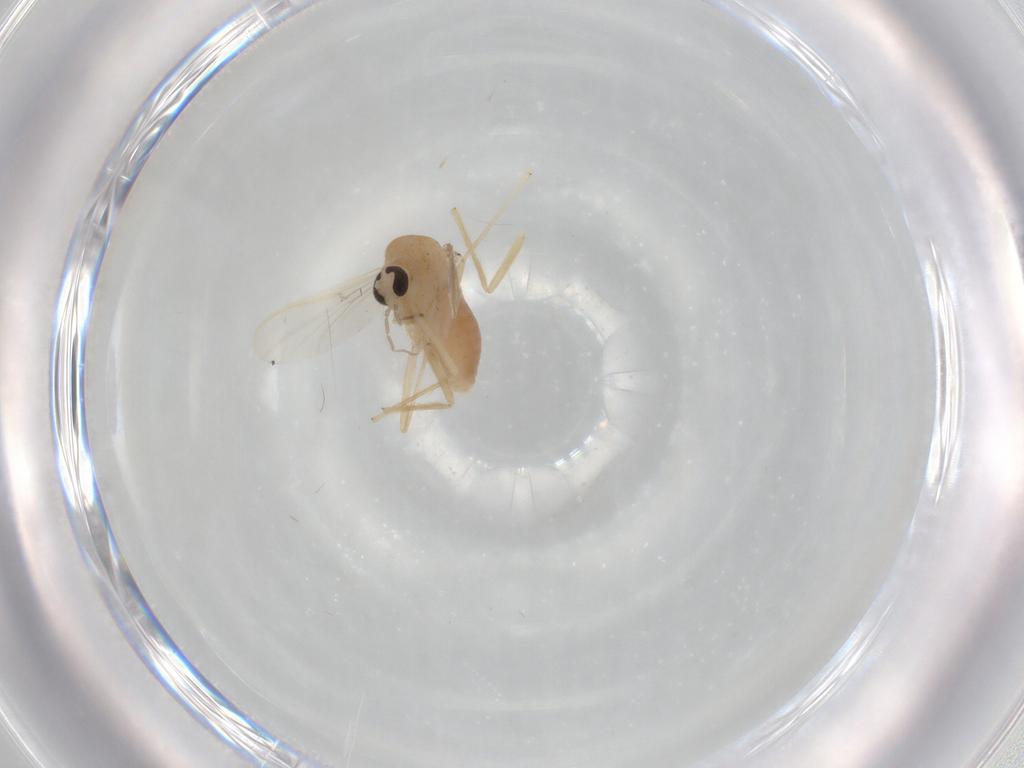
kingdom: Animalia
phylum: Arthropoda
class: Insecta
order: Diptera
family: Chironomidae
